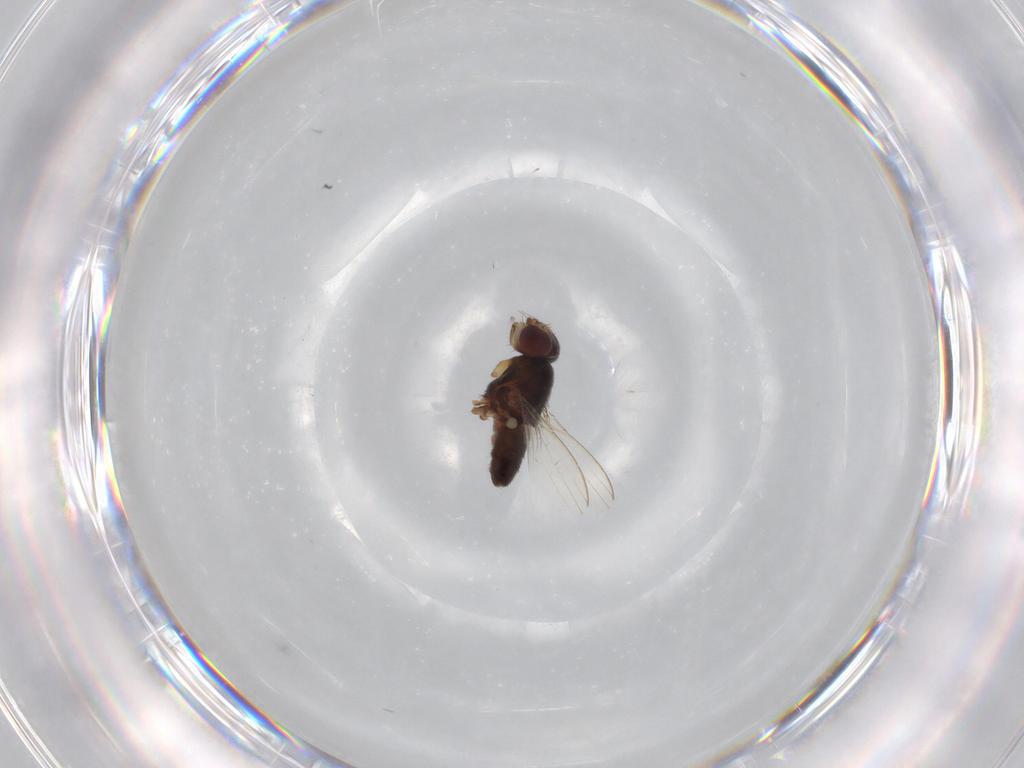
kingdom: Animalia
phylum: Arthropoda
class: Insecta
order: Diptera
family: Milichiidae
